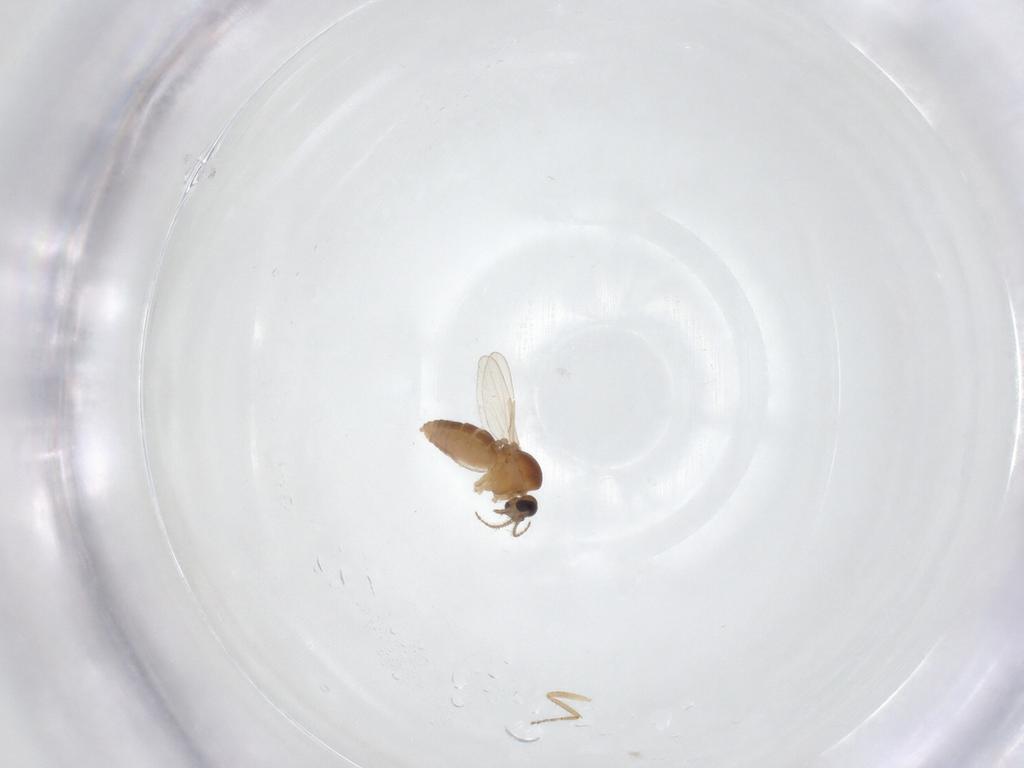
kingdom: Animalia
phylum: Arthropoda
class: Insecta
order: Diptera
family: Ceratopogonidae
